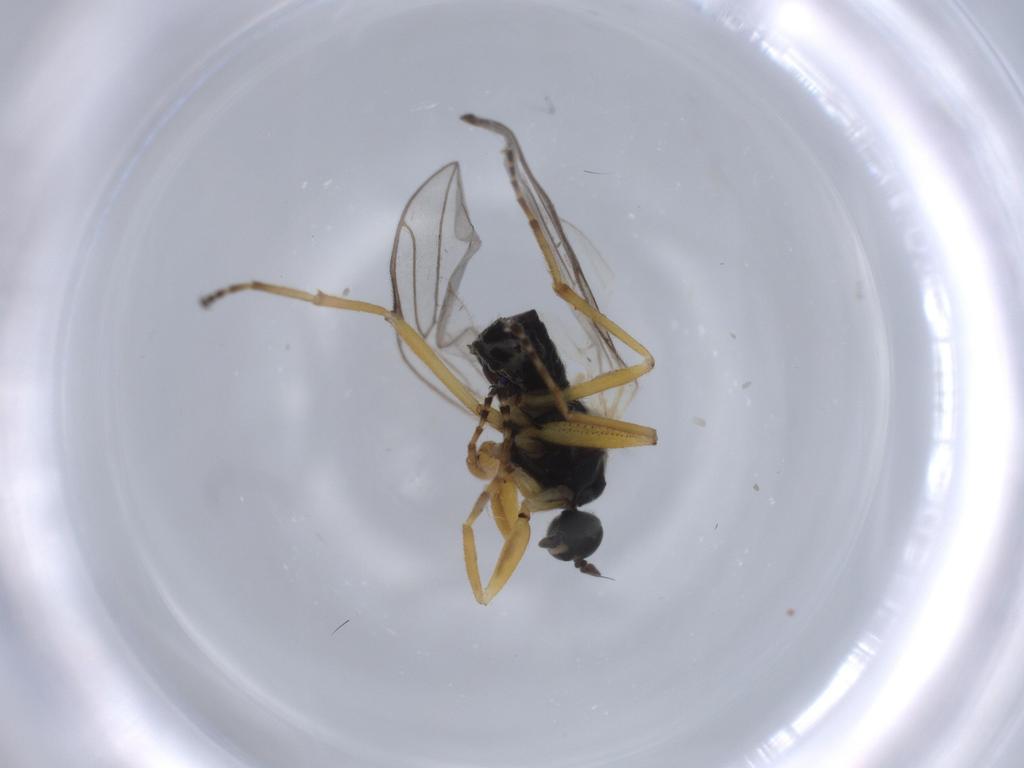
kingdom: Animalia
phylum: Arthropoda
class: Insecta
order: Diptera
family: Hybotidae
